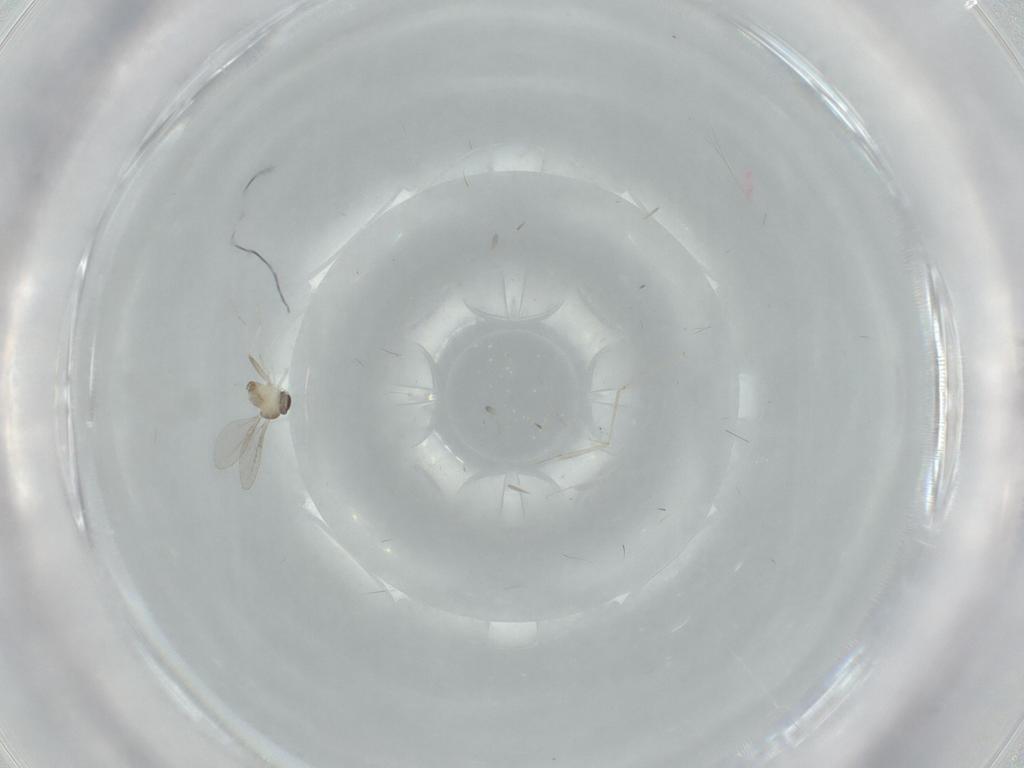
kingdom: Animalia
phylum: Arthropoda
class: Insecta
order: Diptera
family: Cecidomyiidae
